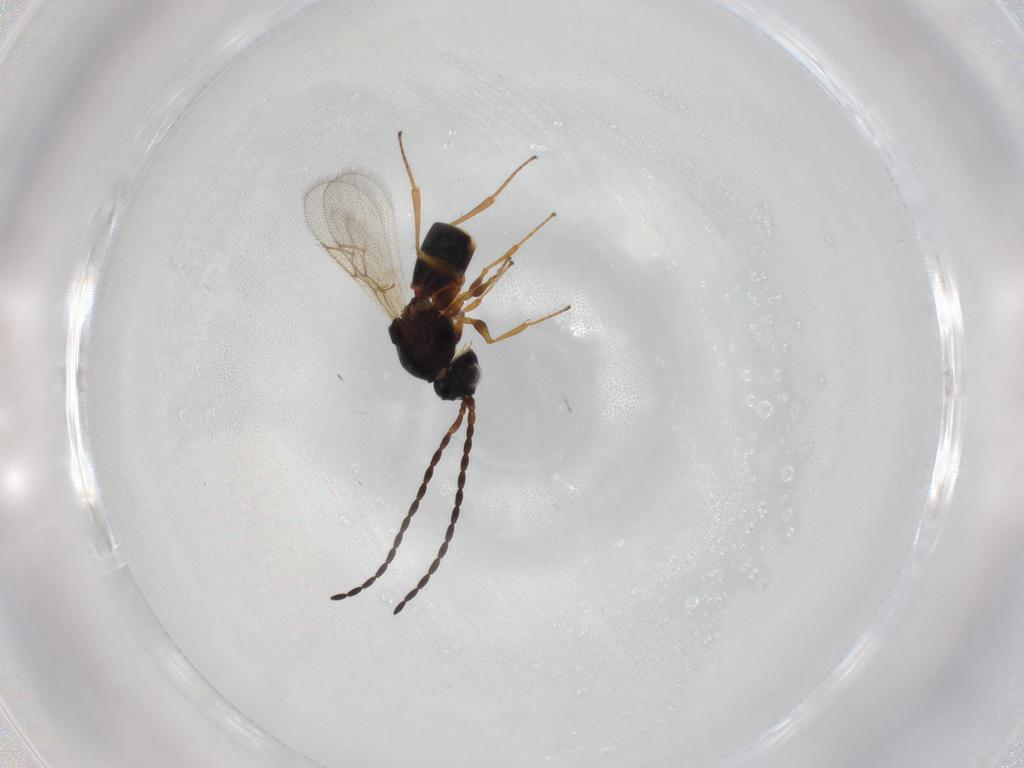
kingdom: Animalia
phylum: Arthropoda
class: Insecta
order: Hymenoptera
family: Figitidae
